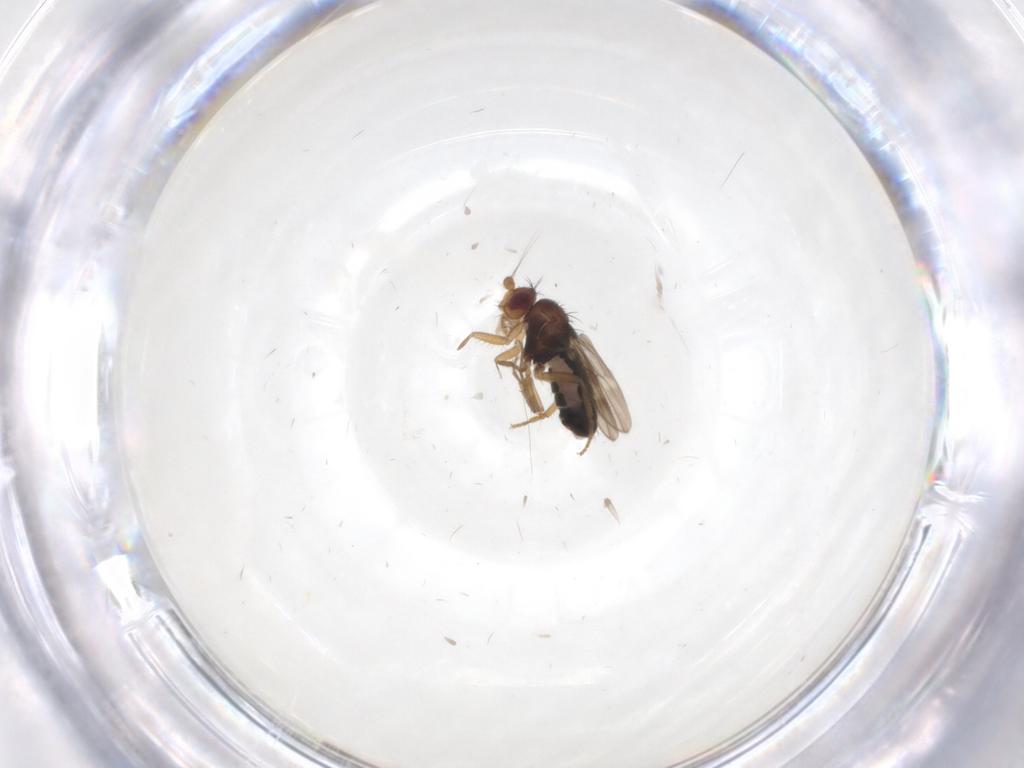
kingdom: Animalia
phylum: Arthropoda
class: Insecta
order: Diptera
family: Sphaeroceridae
